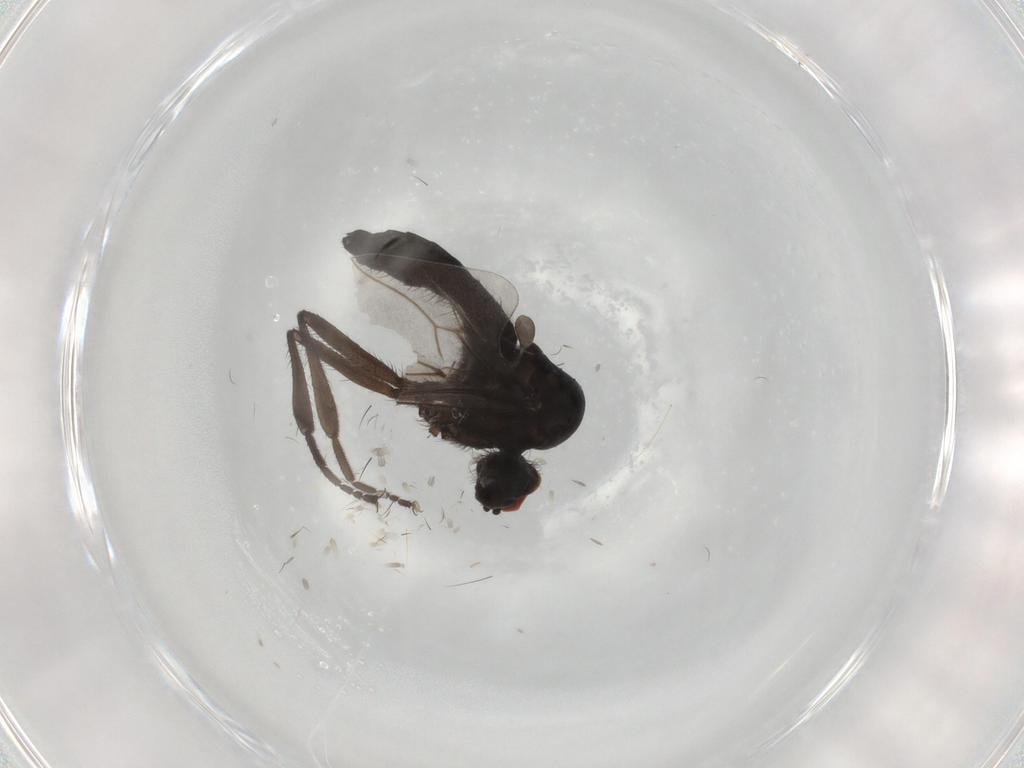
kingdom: Animalia
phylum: Arthropoda
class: Insecta
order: Diptera
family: Hybotidae
